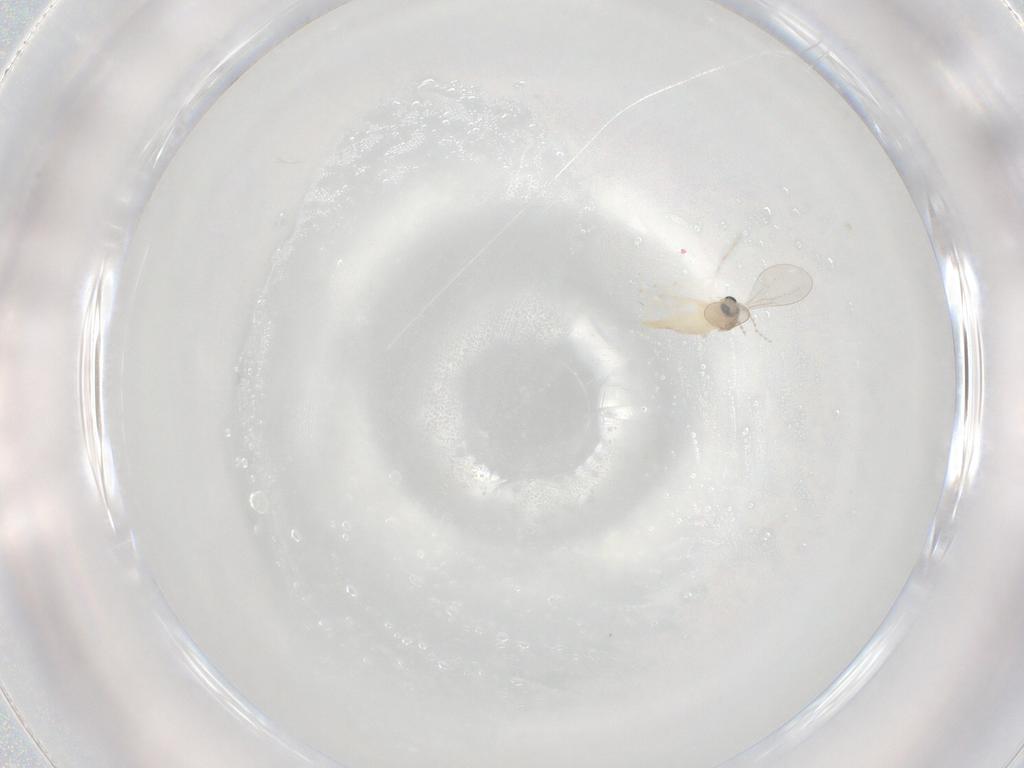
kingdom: Animalia
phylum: Arthropoda
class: Insecta
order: Diptera
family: Cecidomyiidae
